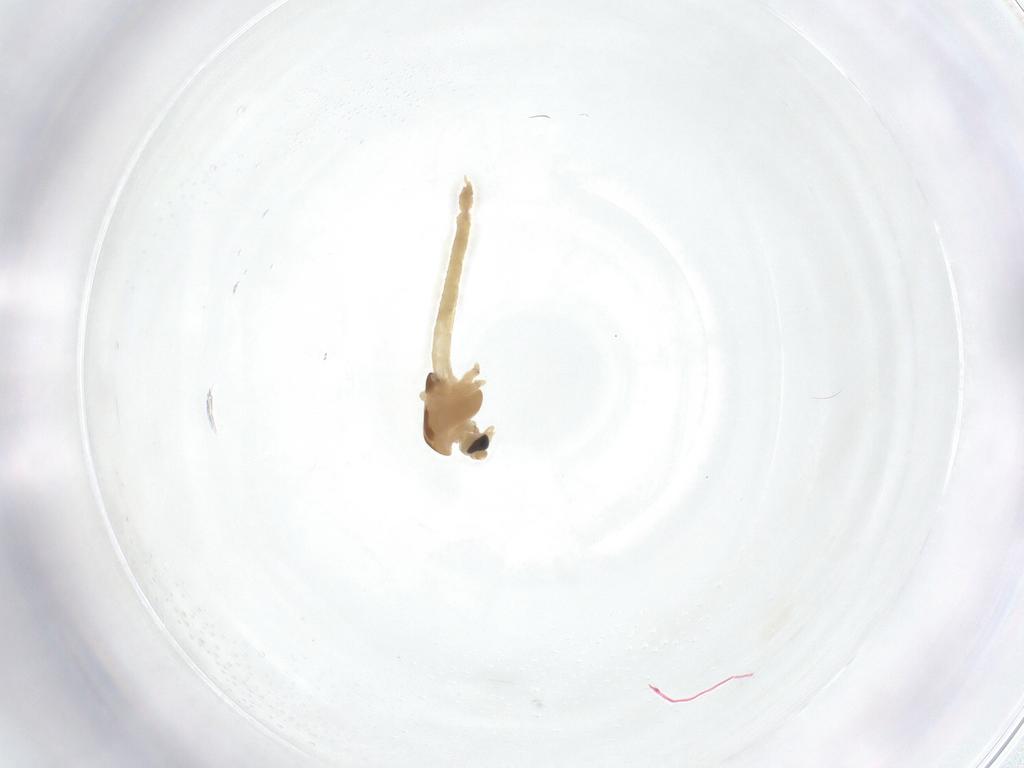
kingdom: Animalia
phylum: Arthropoda
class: Insecta
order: Diptera
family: Chironomidae
